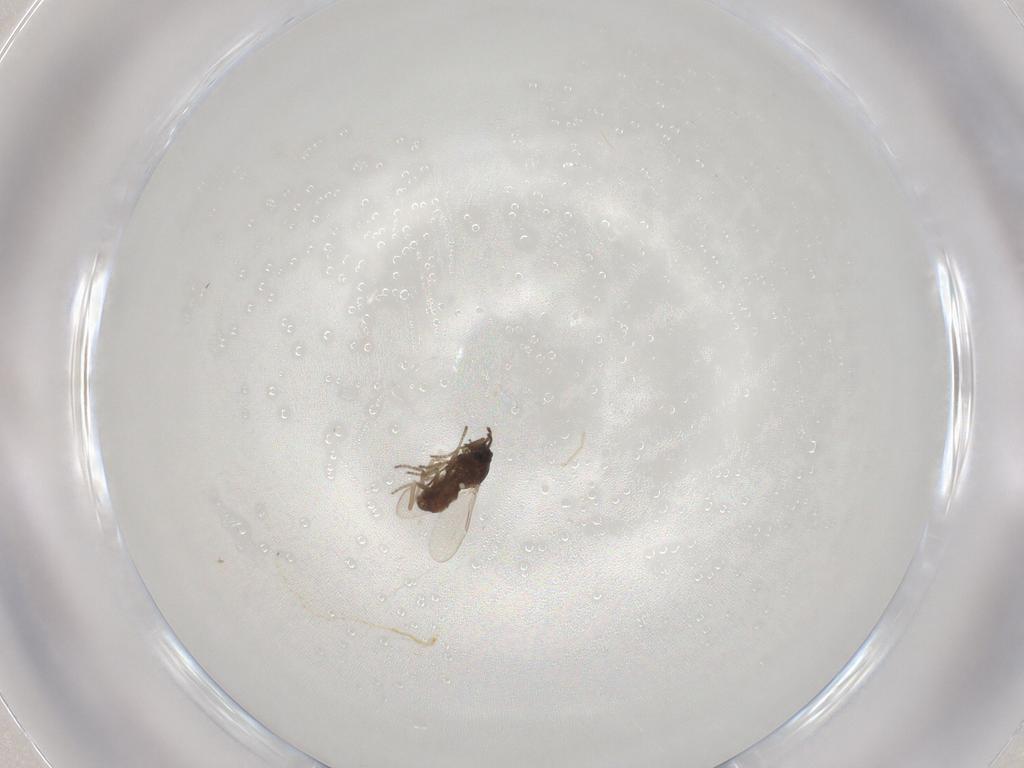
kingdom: Animalia
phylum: Arthropoda
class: Insecta
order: Diptera
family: Ceratopogonidae
